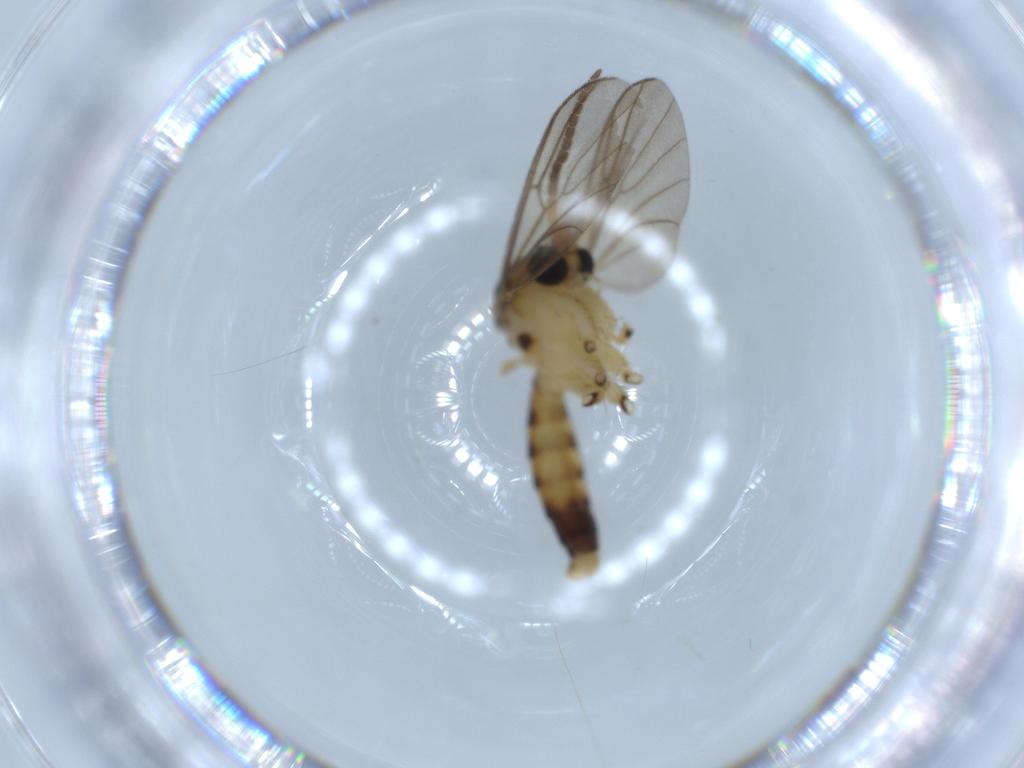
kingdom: Animalia
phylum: Arthropoda
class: Insecta
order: Diptera
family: Mycetophilidae
